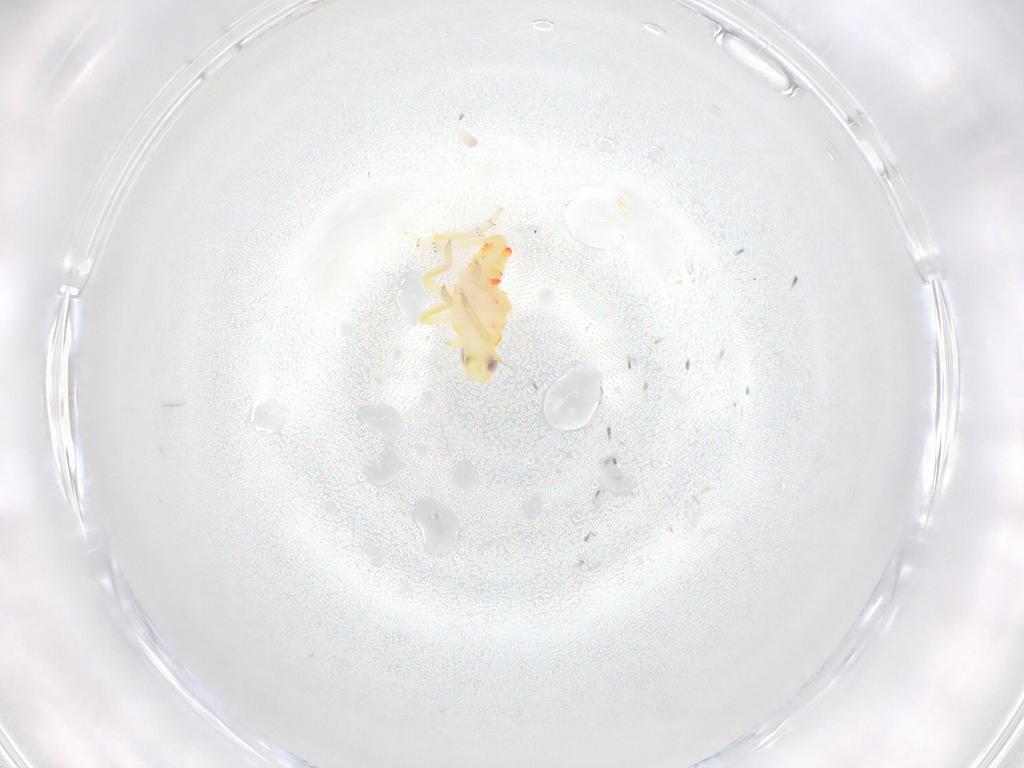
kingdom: Animalia
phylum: Arthropoda
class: Insecta
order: Hemiptera
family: Tropiduchidae
